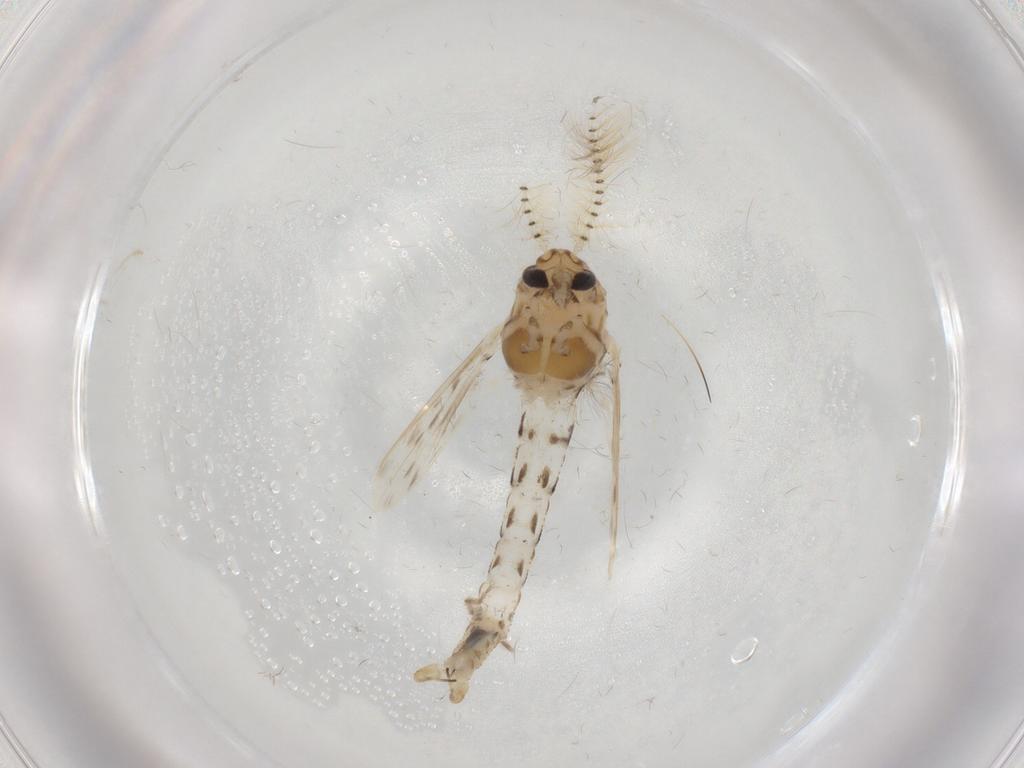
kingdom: Animalia
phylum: Arthropoda
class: Insecta
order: Diptera
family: Chaoboridae
